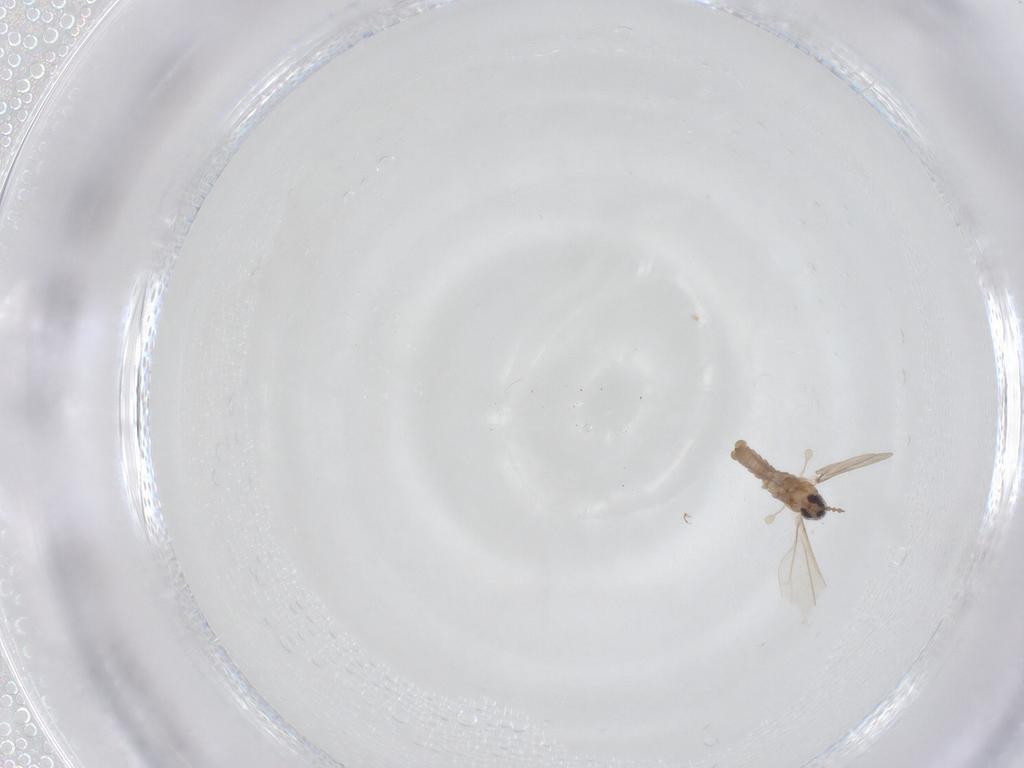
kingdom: Animalia
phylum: Arthropoda
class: Insecta
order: Diptera
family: Cecidomyiidae
